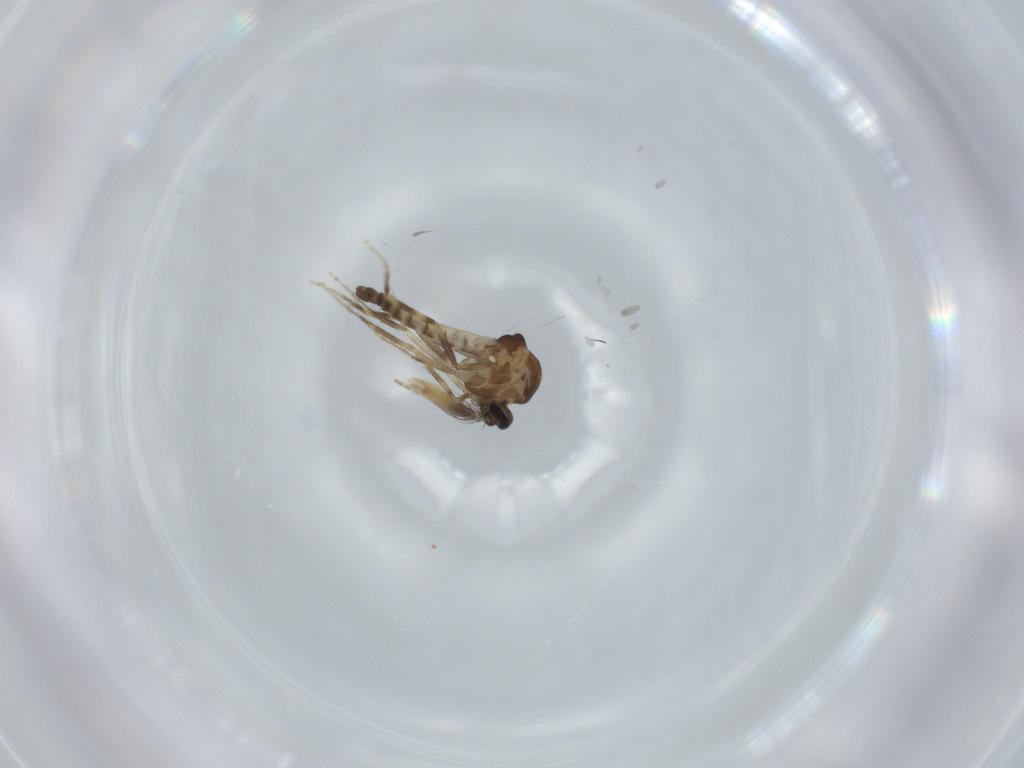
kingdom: Animalia
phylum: Arthropoda
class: Insecta
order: Diptera
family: Ceratopogonidae
